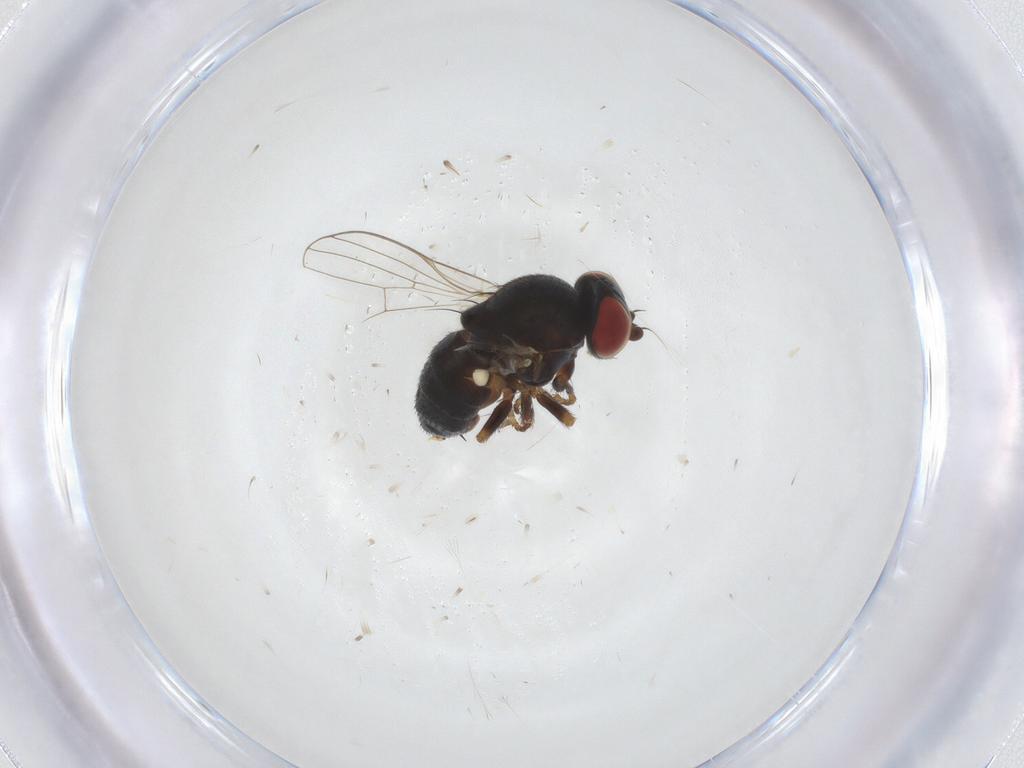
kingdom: Animalia
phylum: Arthropoda
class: Insecta
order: Diptera
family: Chamaemyiidae
